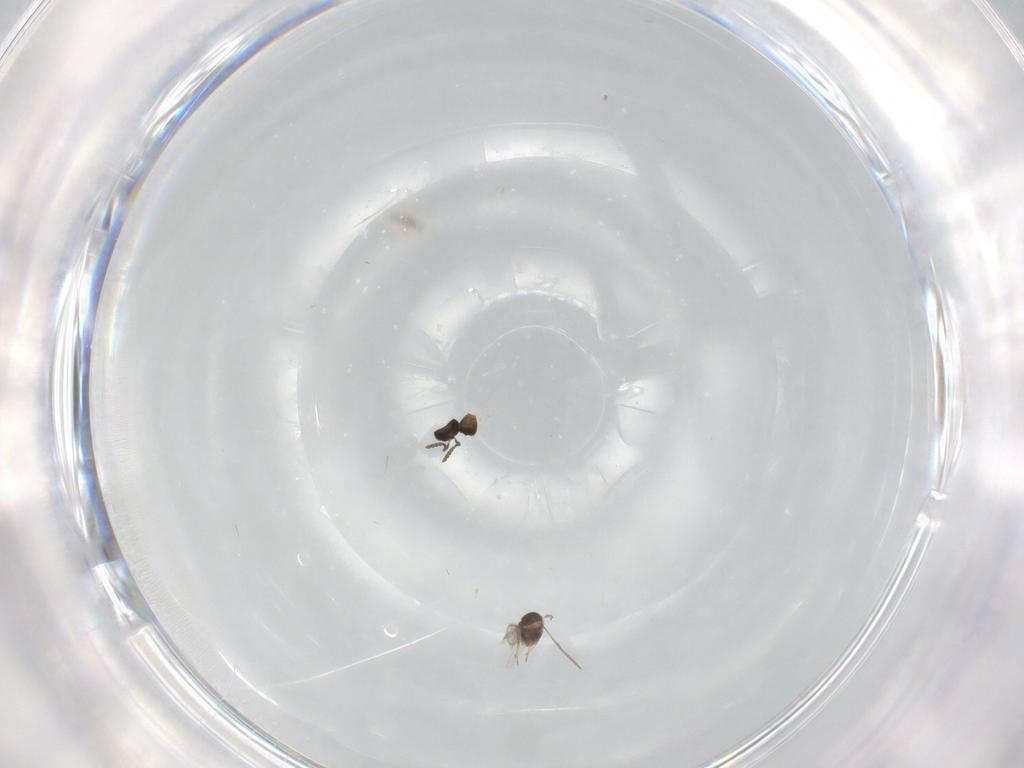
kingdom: Animalia
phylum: Arthropoda
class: Insecta
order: Hymenoptera
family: Scelionidae
